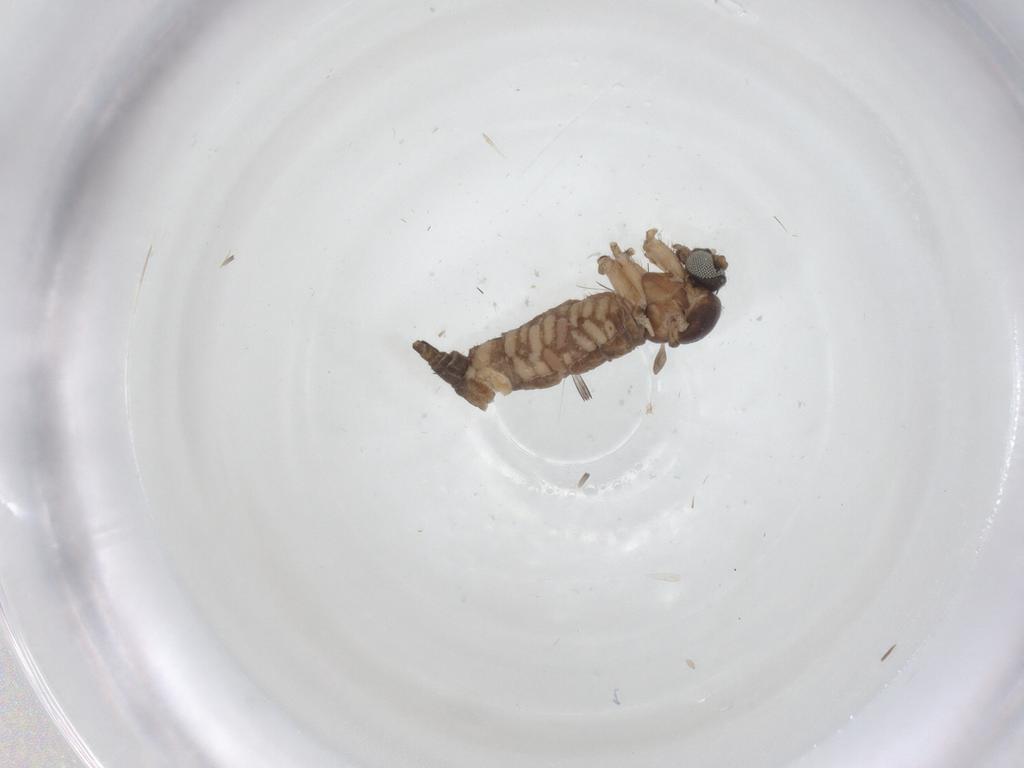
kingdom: Animalia
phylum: Arthropoda
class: Insecta
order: Diptera
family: Sciaridae
